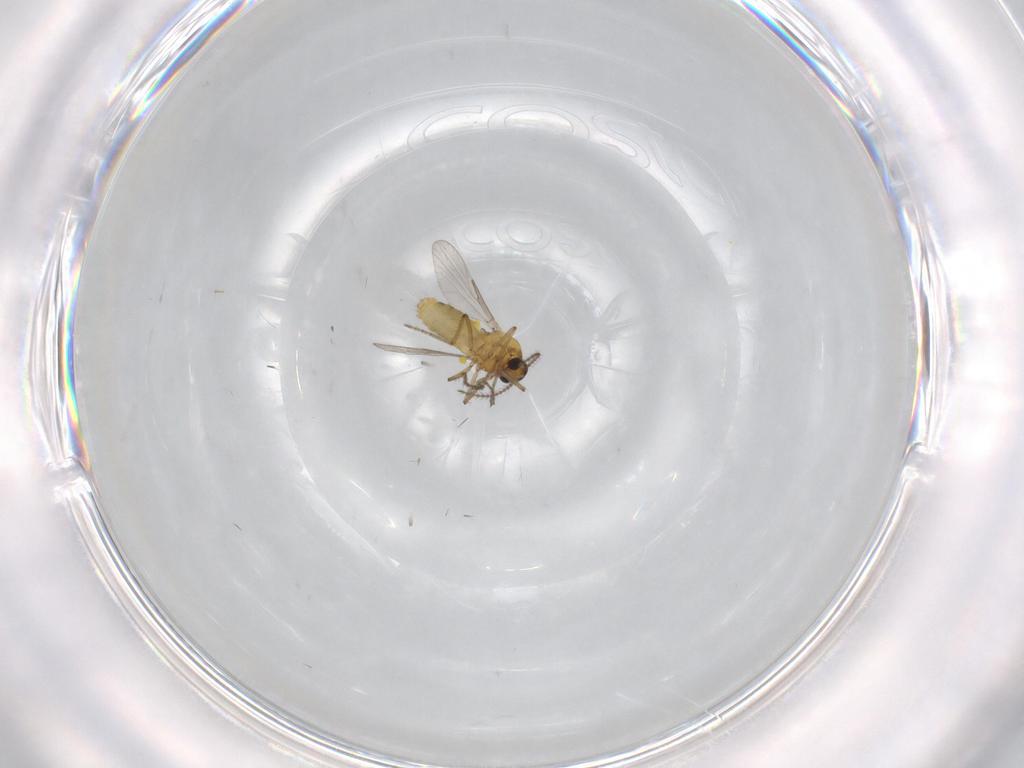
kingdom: Animalia
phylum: Arthropoda
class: Insecta
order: Diptera
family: Ceratopogonidae
